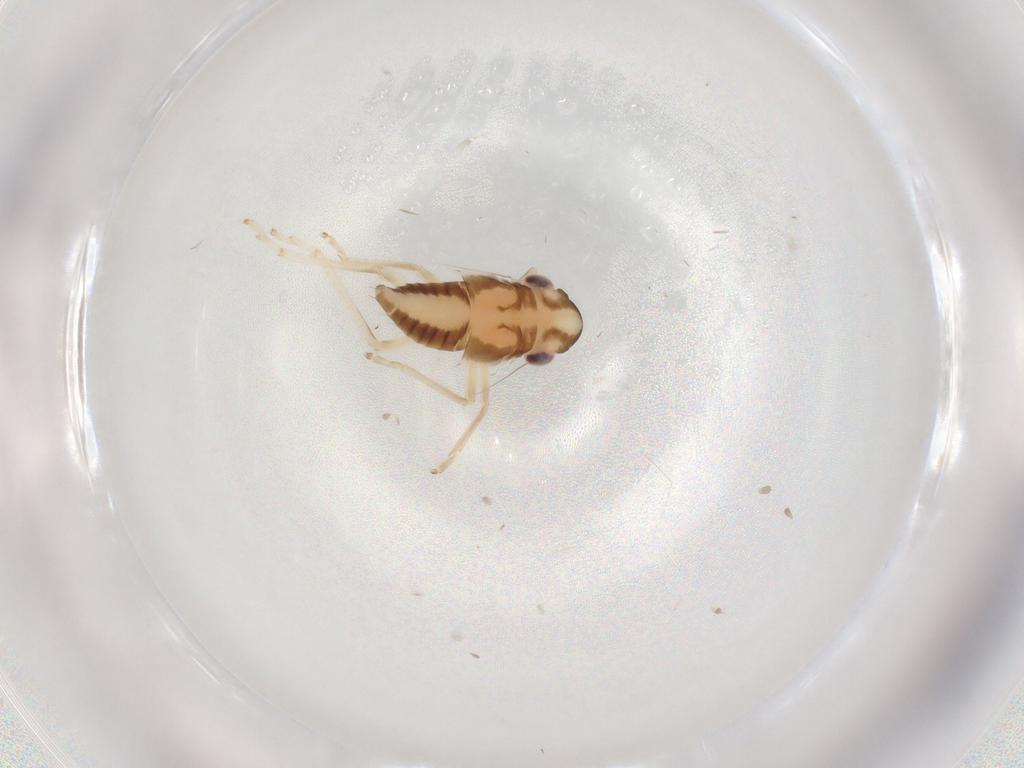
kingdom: Animalia
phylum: Arthropoda
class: Insecta
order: Hemiptera
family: Cicadellidae
